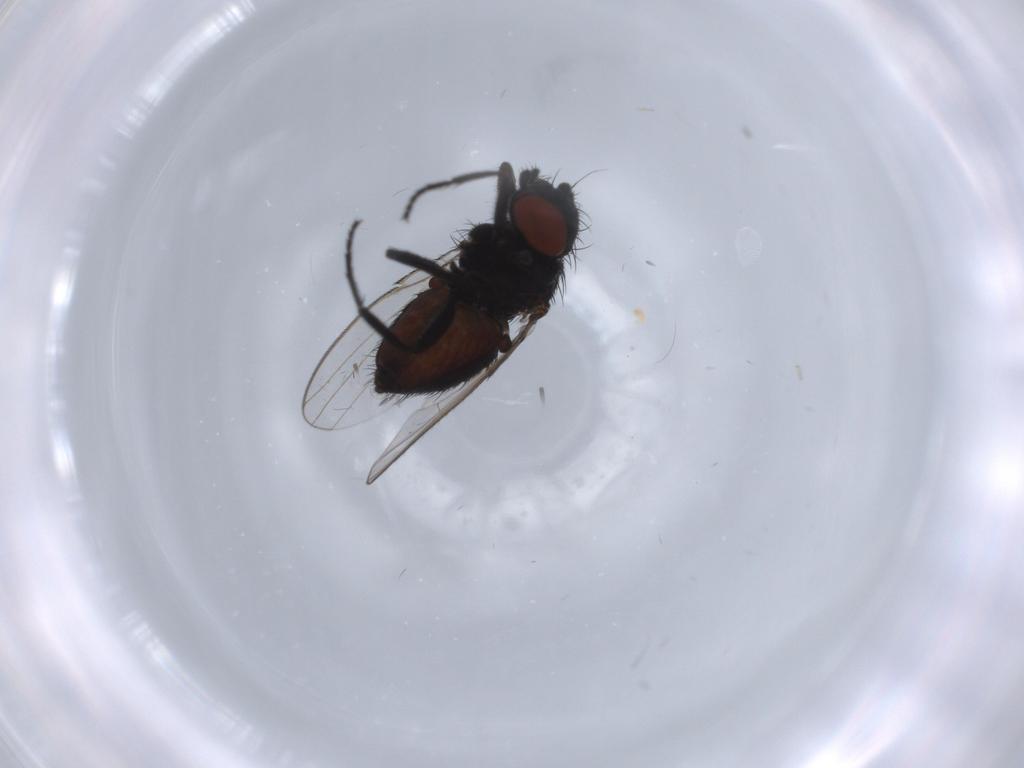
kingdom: Animalia
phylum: Arthropoda
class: Insecta
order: Diptera
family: Milichiidae
